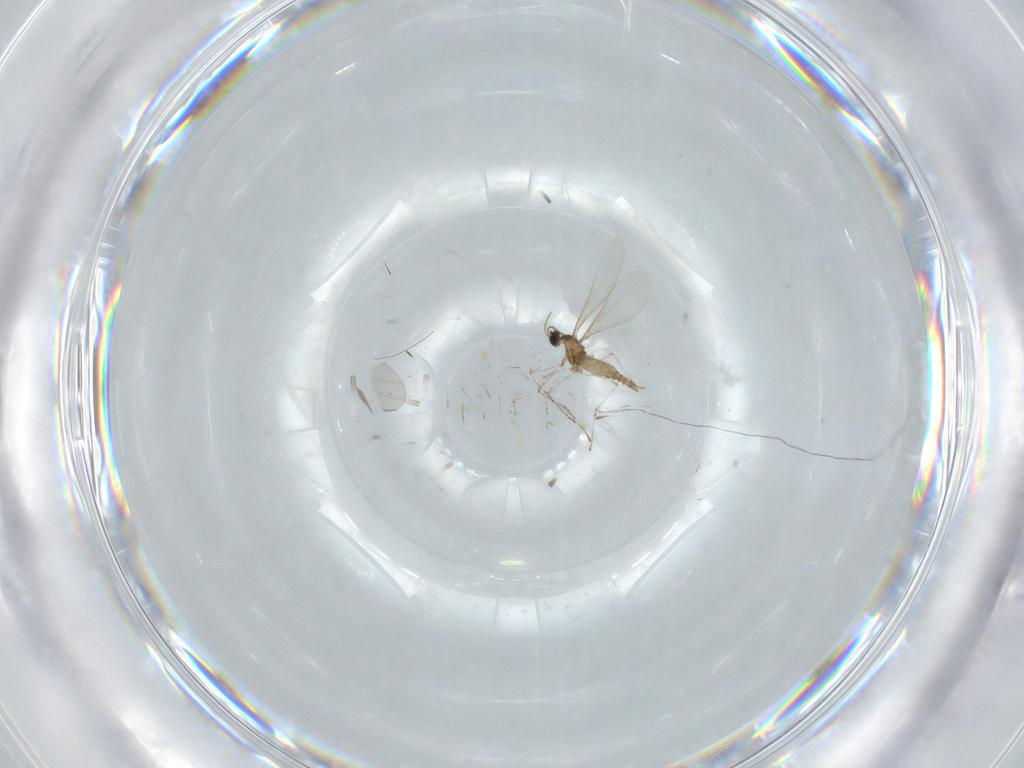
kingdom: Animalia
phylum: Arthropoda
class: Insecta
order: Diptera
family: Cecidomyiidae
